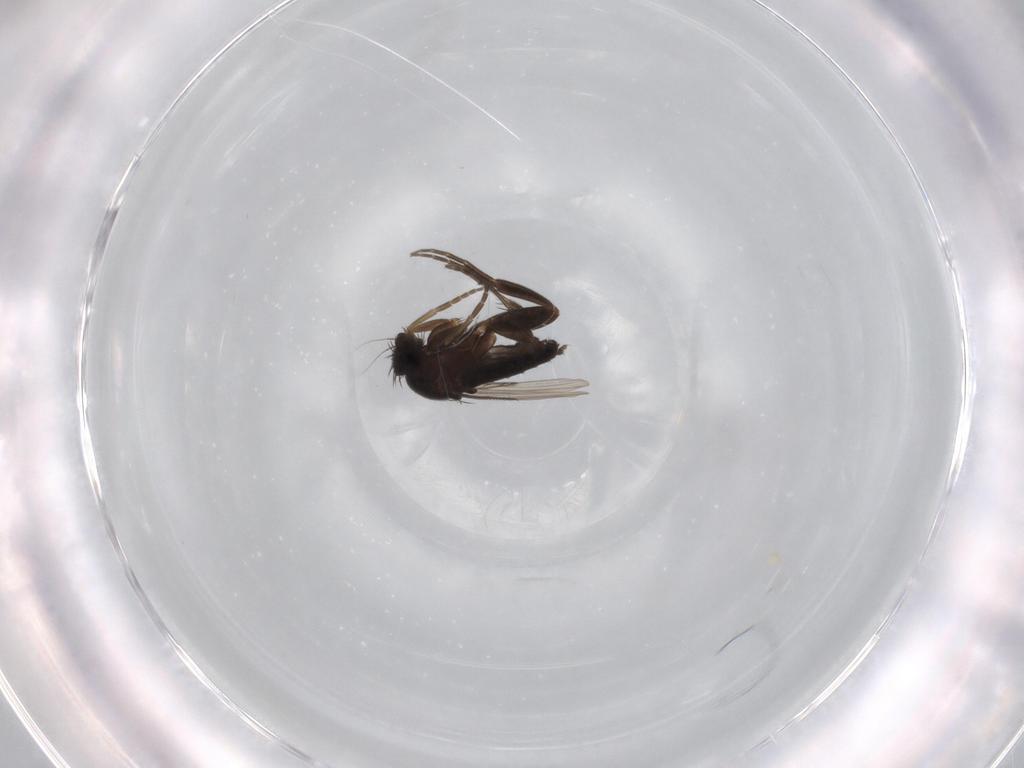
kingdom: Animalia
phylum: Arthropoda
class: Insecta
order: Diptera
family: Phoridae
